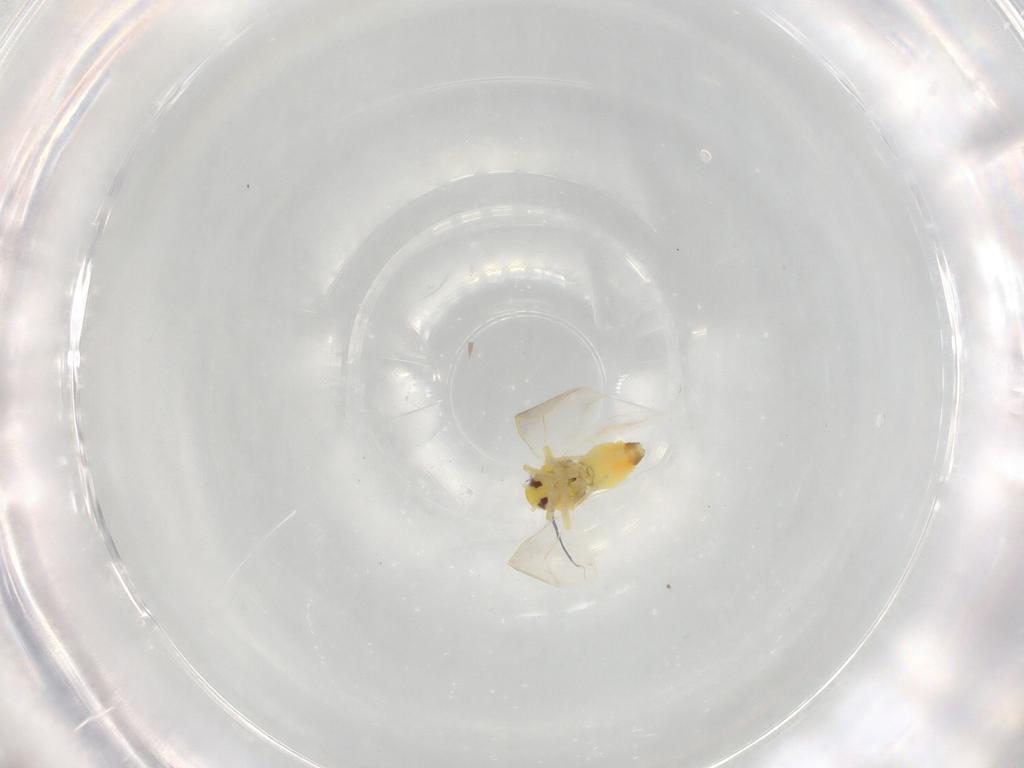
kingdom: Animalia
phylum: Arthropoda
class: Insecta
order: Hemiptera
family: Aleyrodidae
